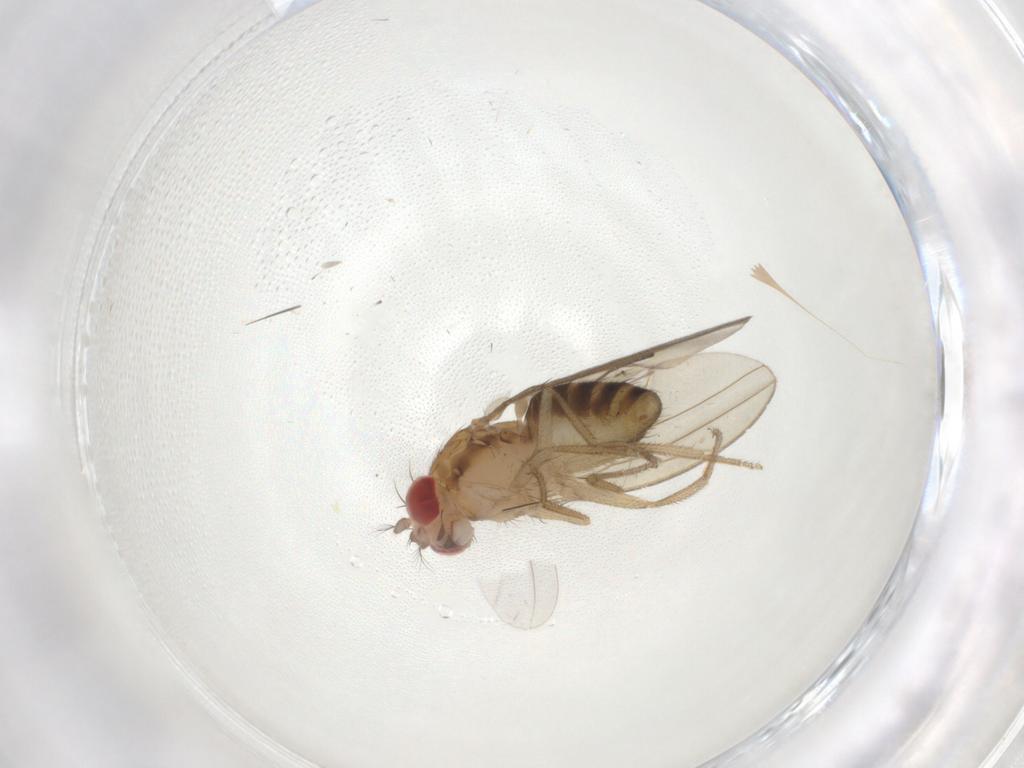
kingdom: Animalia
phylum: Arthropoda
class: Insecta
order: Diptera
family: Drosophilidae
